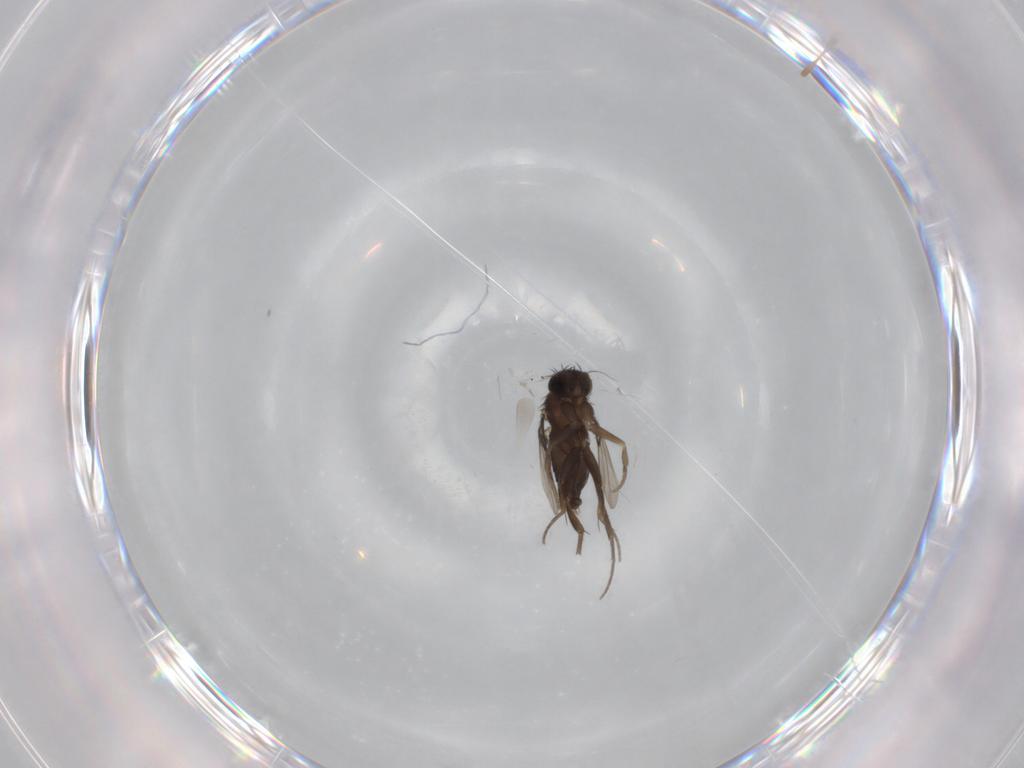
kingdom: Animalia
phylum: Arthropoda
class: Insecta
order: Diptera
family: Phoridae
